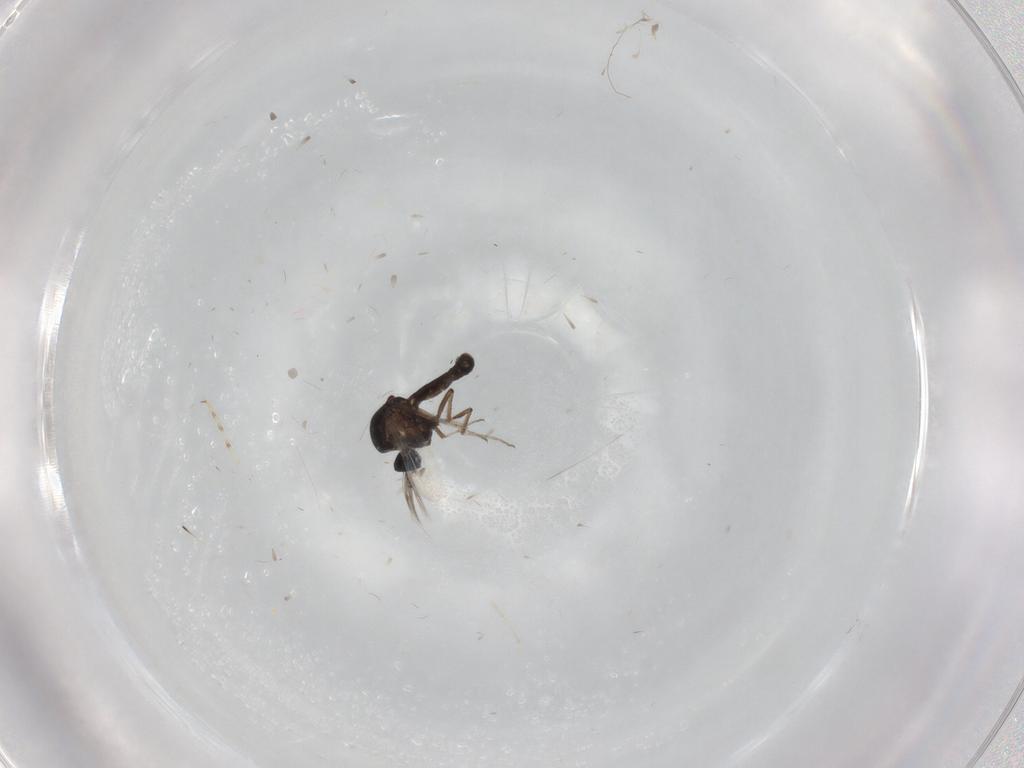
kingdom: Animalia
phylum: Arthropoda
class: Insecta
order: Diptera
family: Ceratopogonidae
